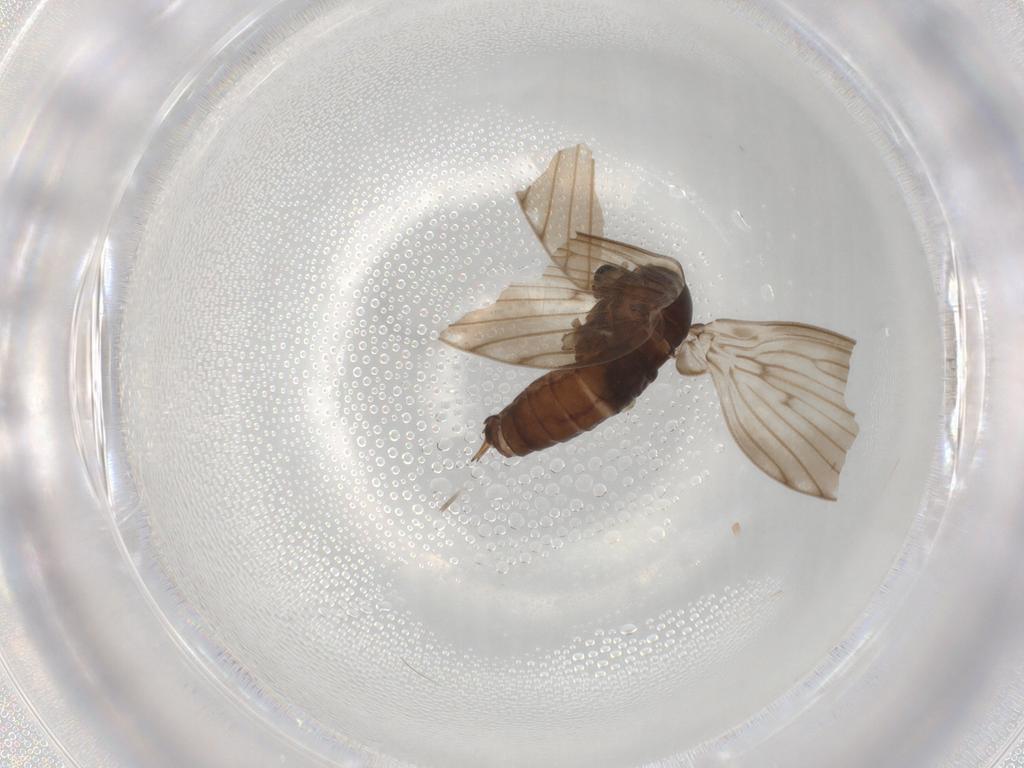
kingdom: Animalia
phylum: Arthropoda
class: Insecta
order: Diptera
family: Psychodidae
